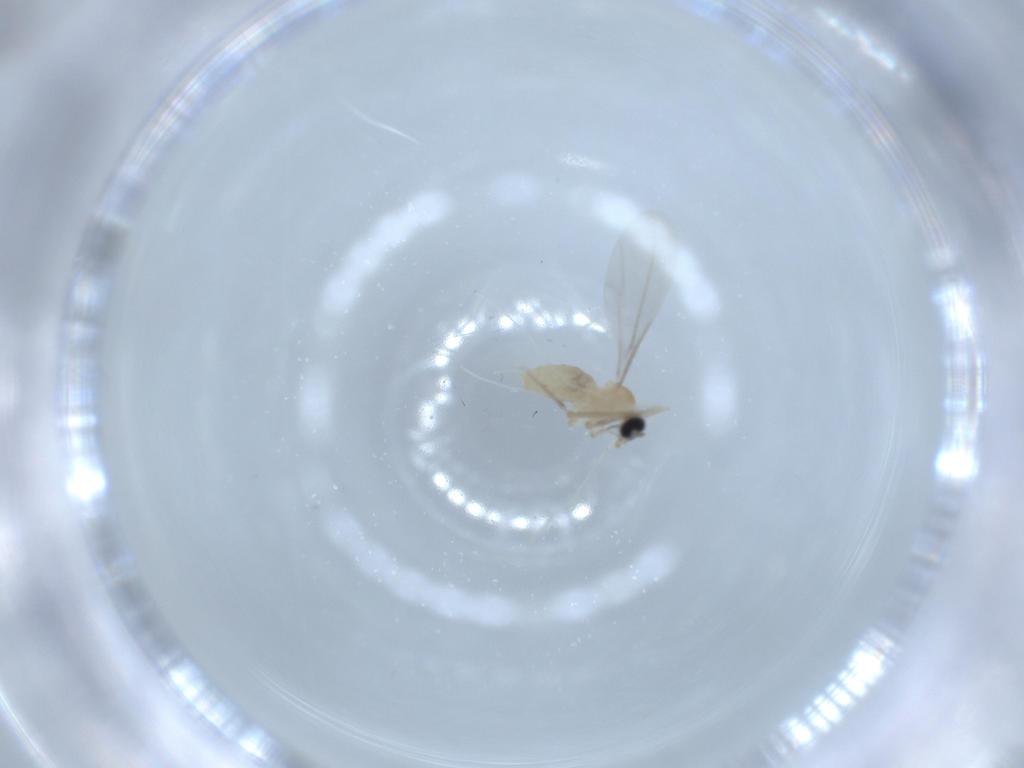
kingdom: Animalia
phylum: Arthropoda
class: Insecta
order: Diptera
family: Cecidomyiidae
